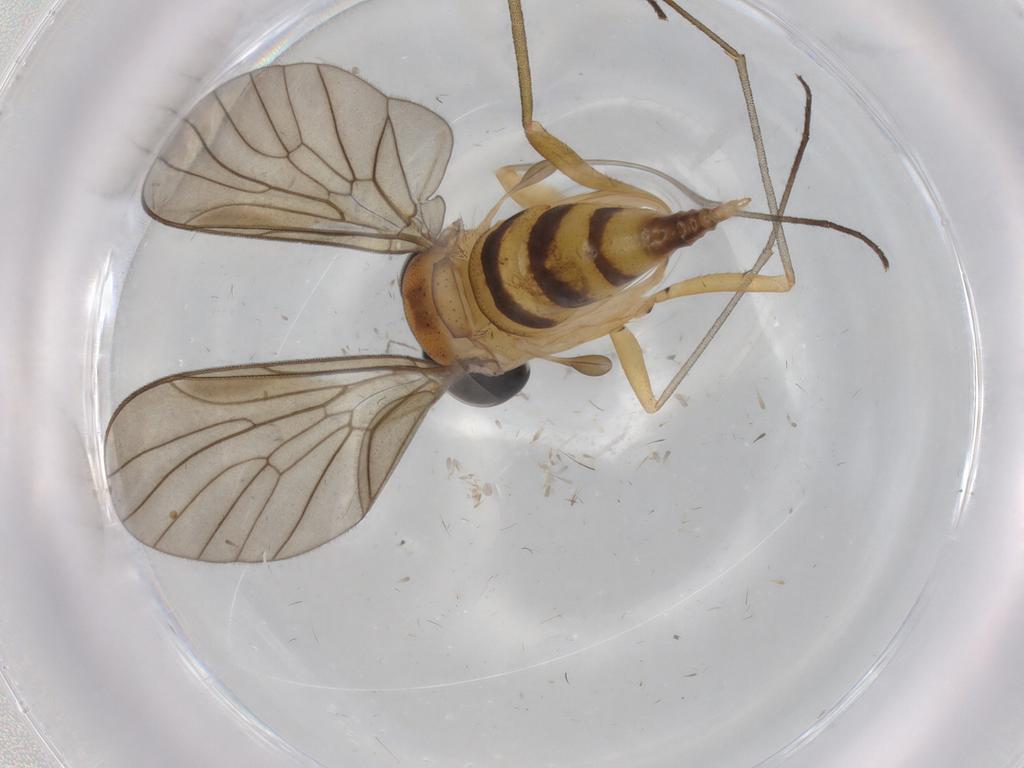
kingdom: Animalia
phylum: Arthropoda
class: Insecta
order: Diptera
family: Cecidomyiidae
